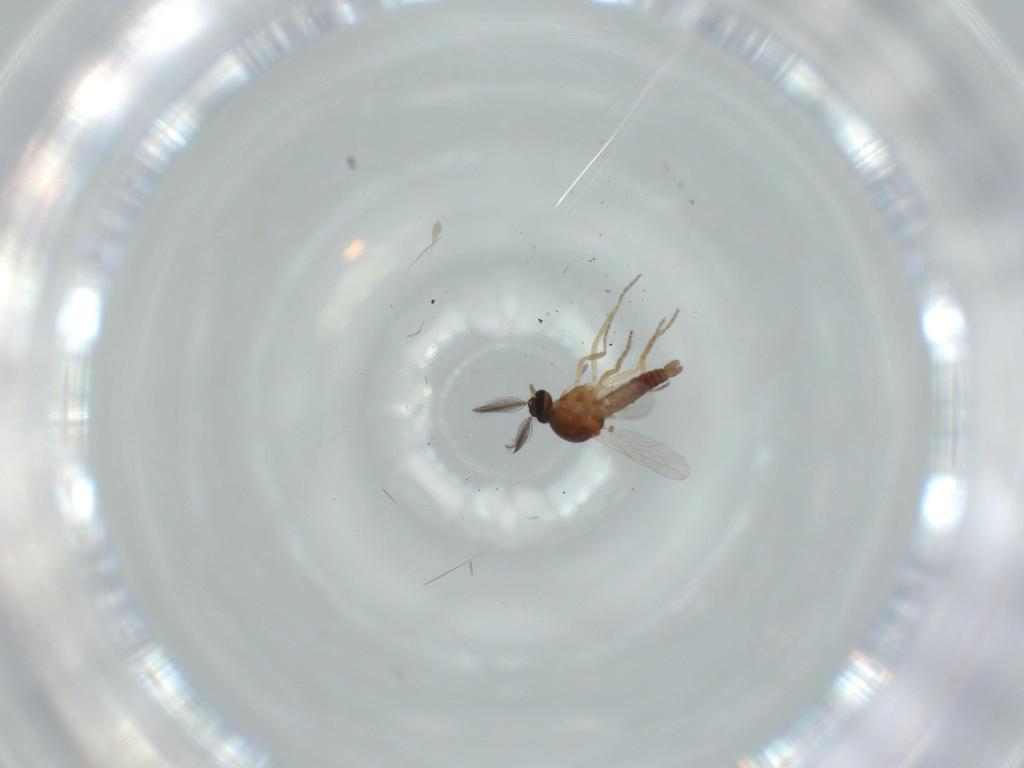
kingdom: Animalia
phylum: Arthropoda
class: Insecta
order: Diptera
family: Ceratopogonidae
